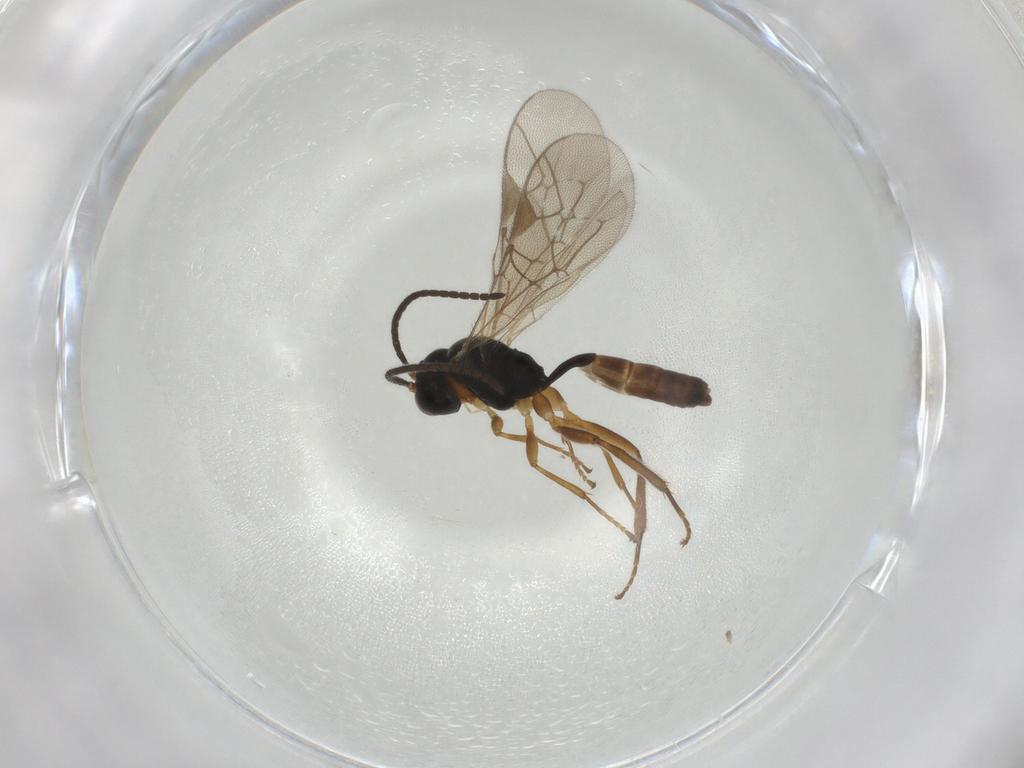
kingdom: Animalia
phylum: Arthropoda
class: Insecta
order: Hymenoptera
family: Ichneumonidae
